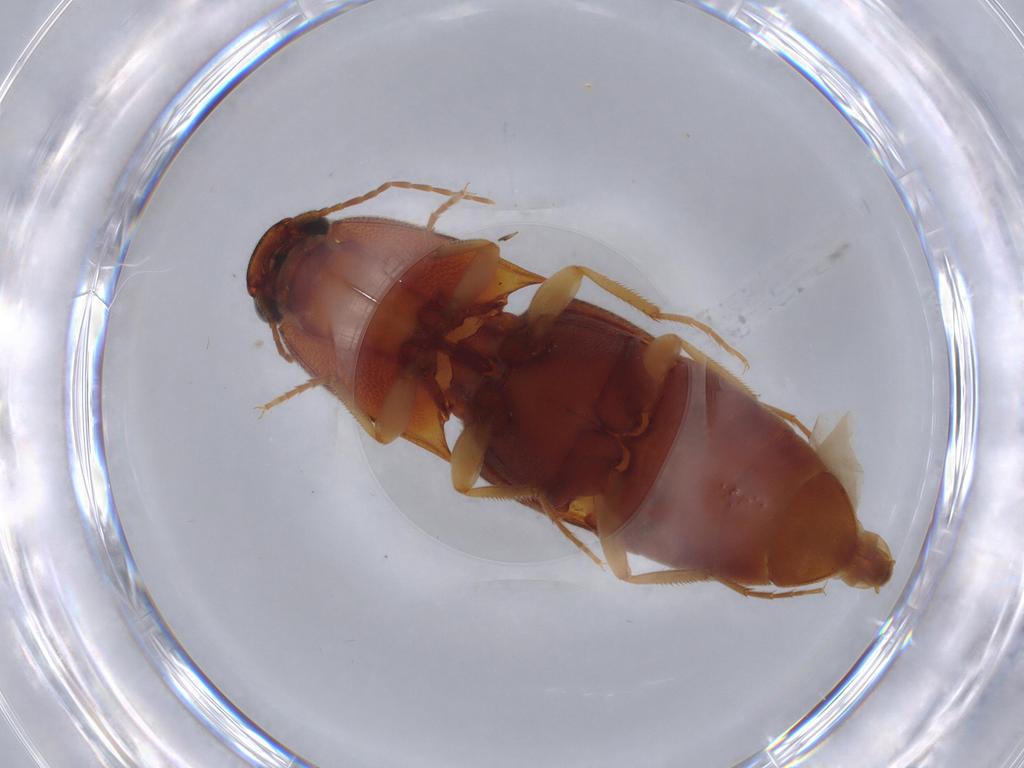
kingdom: Animalia
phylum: Arthropoda
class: Insecta
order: Coleoptera
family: Elateridae
